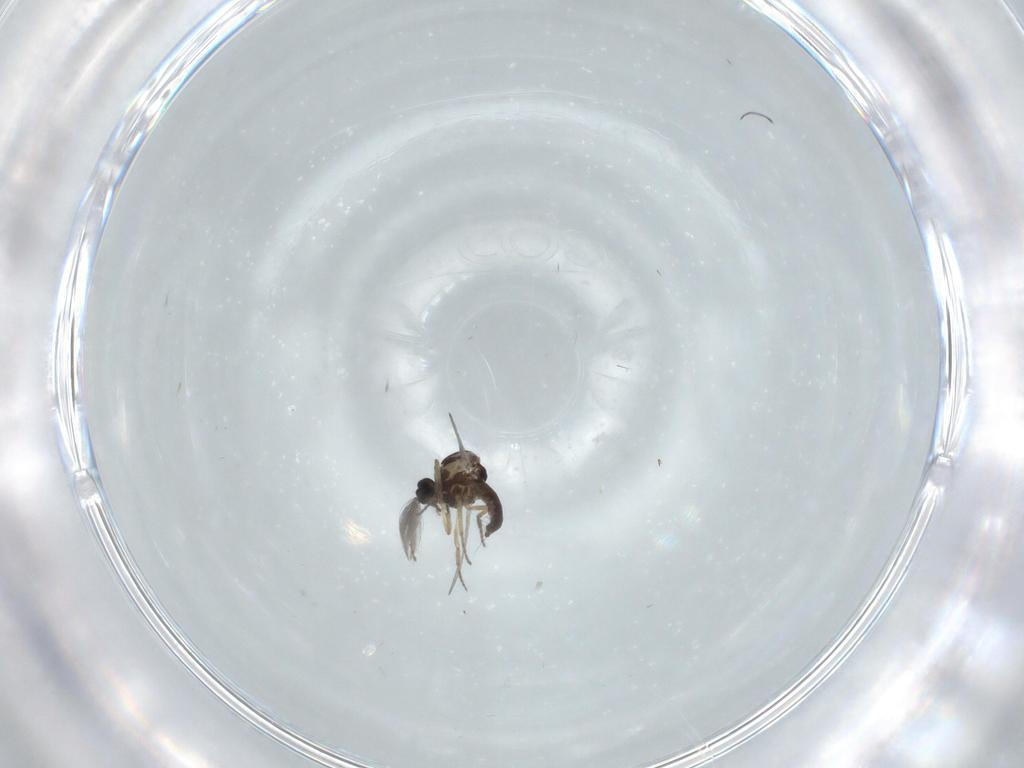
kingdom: Animalia
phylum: Arthropoda
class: Insecta
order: Diptera
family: Ceratopogonidae
